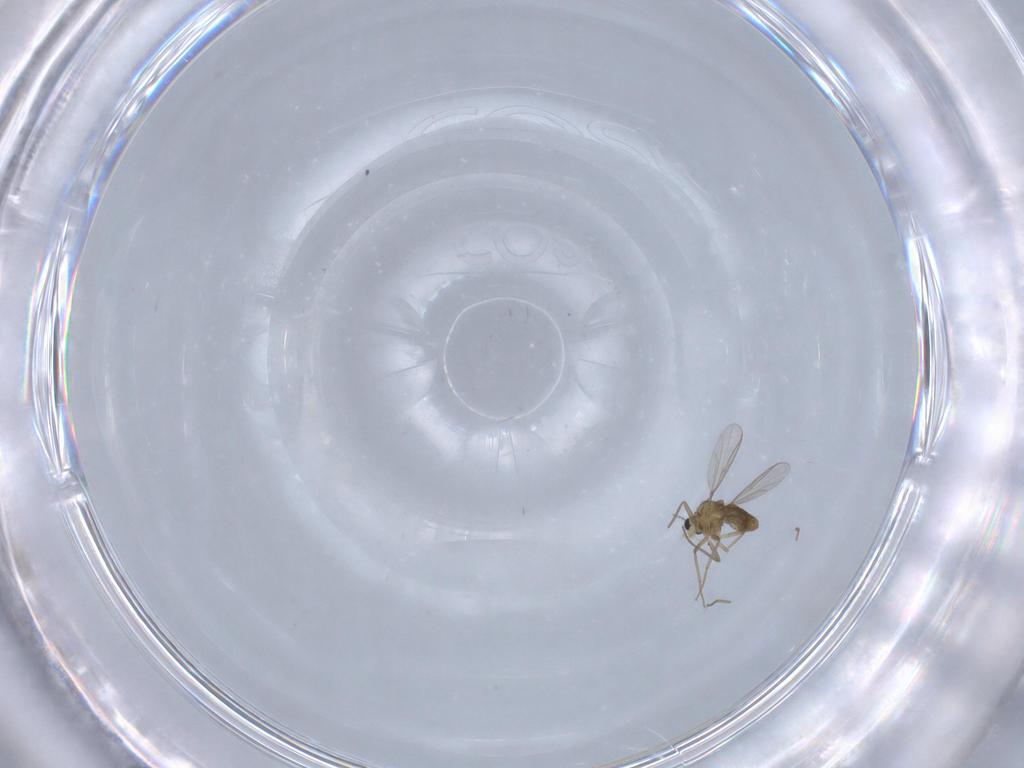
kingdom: Animalia
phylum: Arthropoda
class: Insecta
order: Diptera
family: Chironomidae
